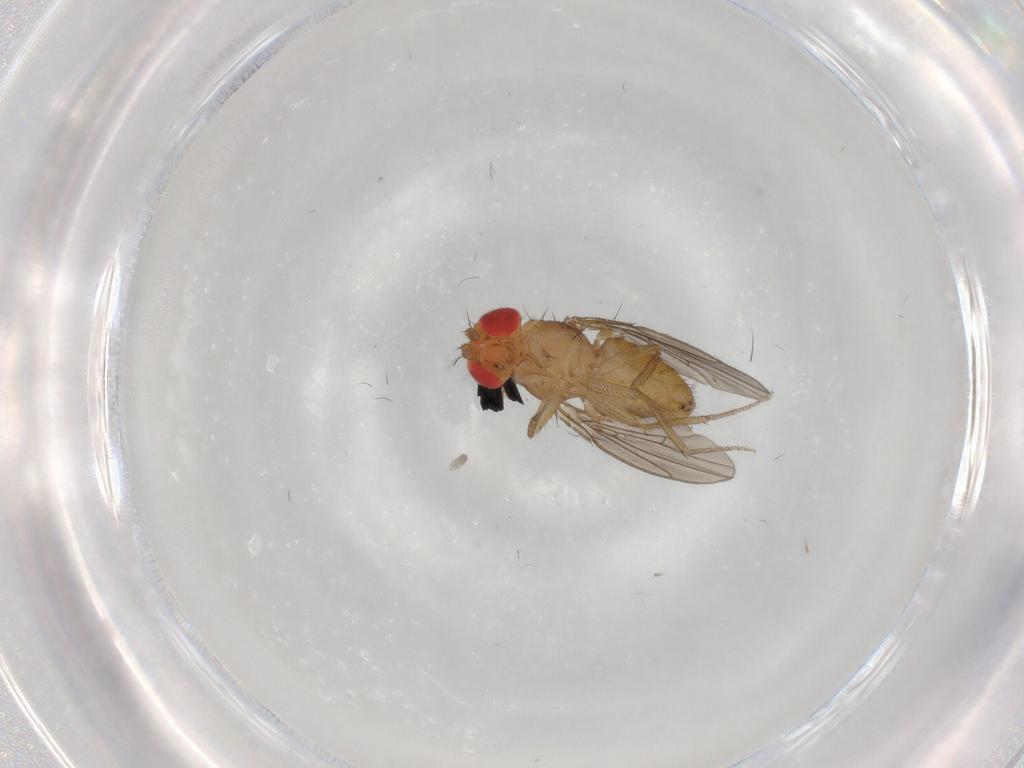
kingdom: Animalia
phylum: Arthropoda
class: Insecta
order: Diptera
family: Drosophilidae
